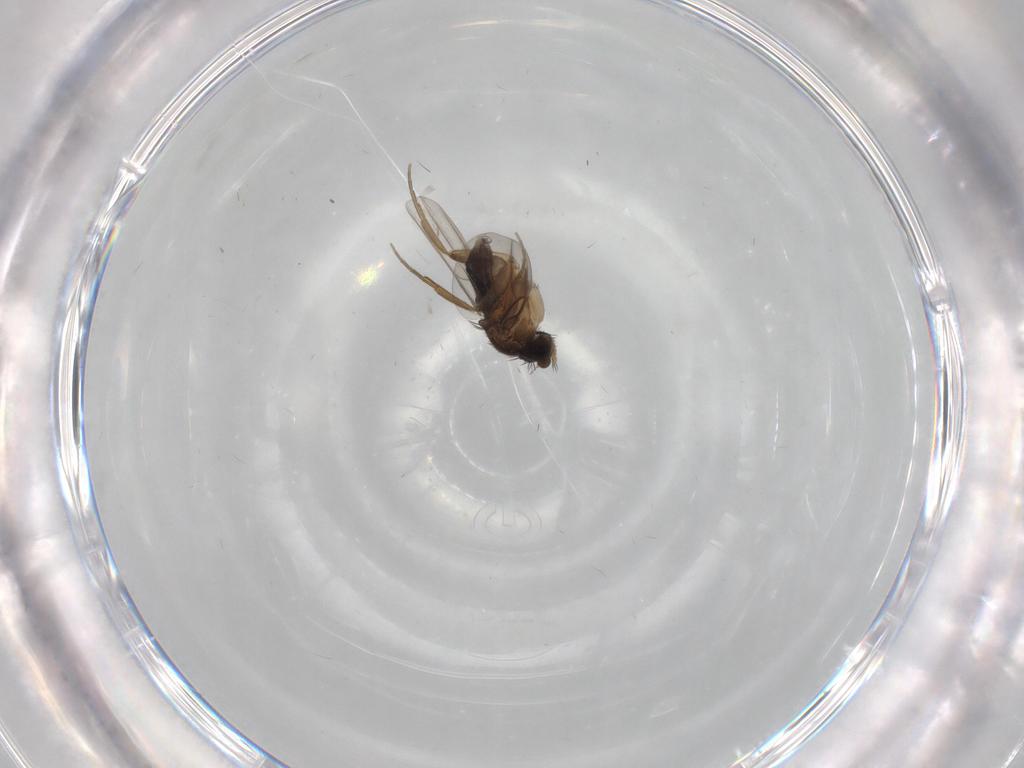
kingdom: Animalia
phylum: Arthropoda
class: Insecta
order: Diptera
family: Phoridae
